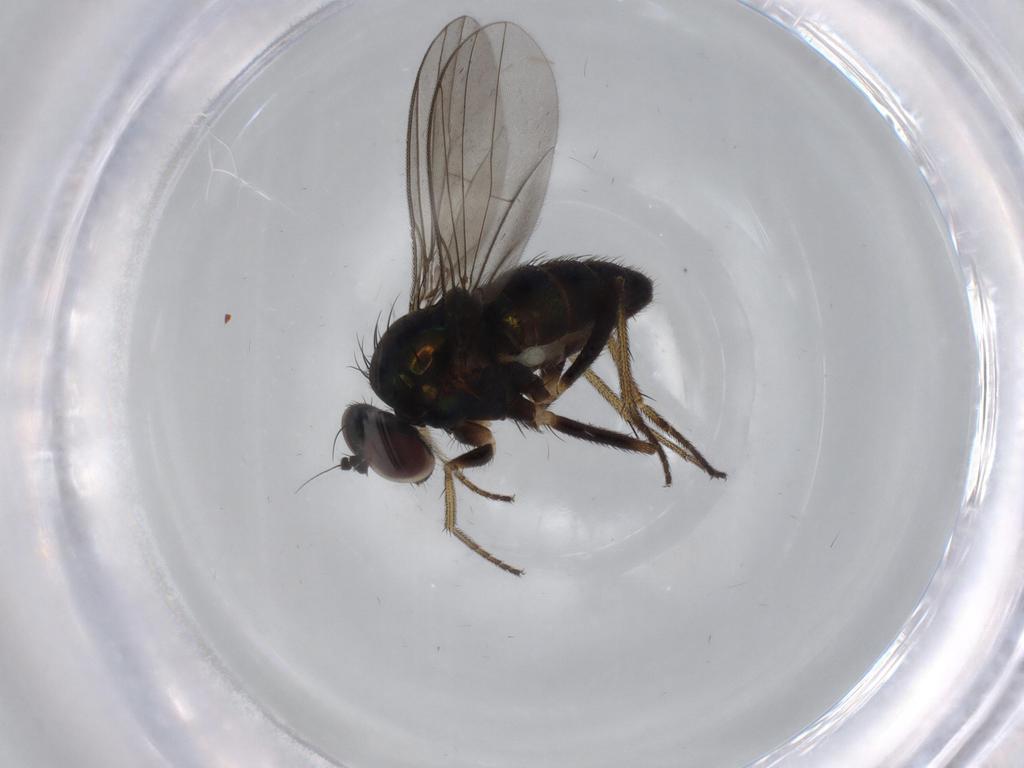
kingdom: Animalia
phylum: Arthropoda
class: Insecta
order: Diptera
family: Dolichopodidae
